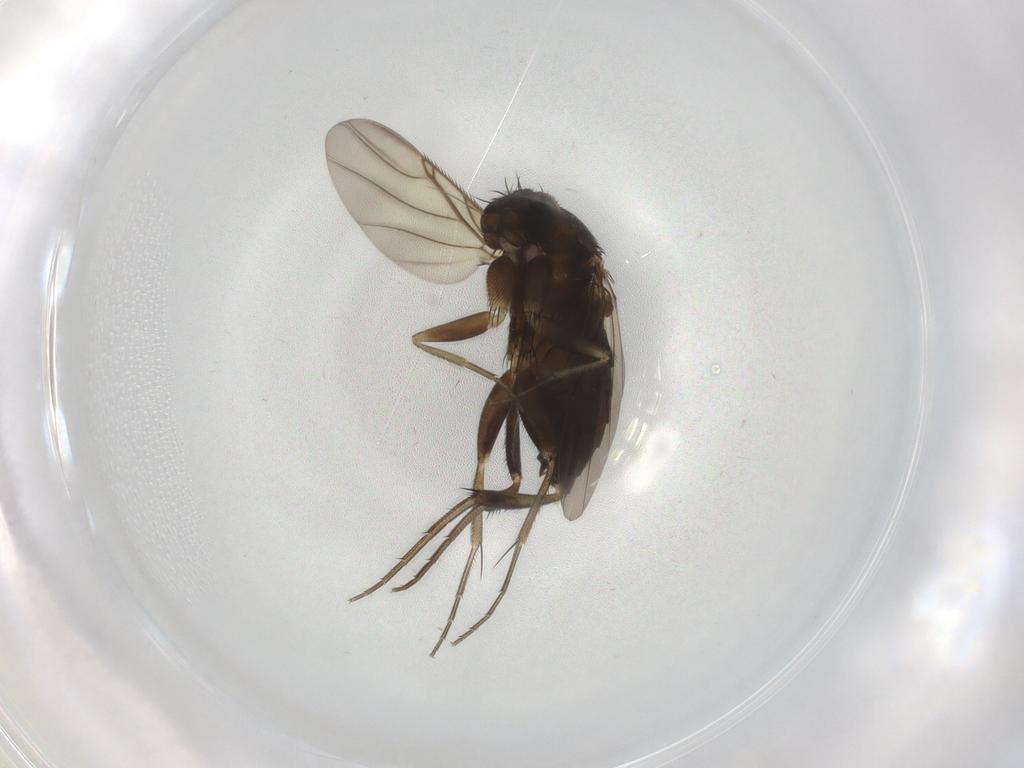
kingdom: Animalia
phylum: Arthropoda
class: Insecta
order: Diptera
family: Phoridae
